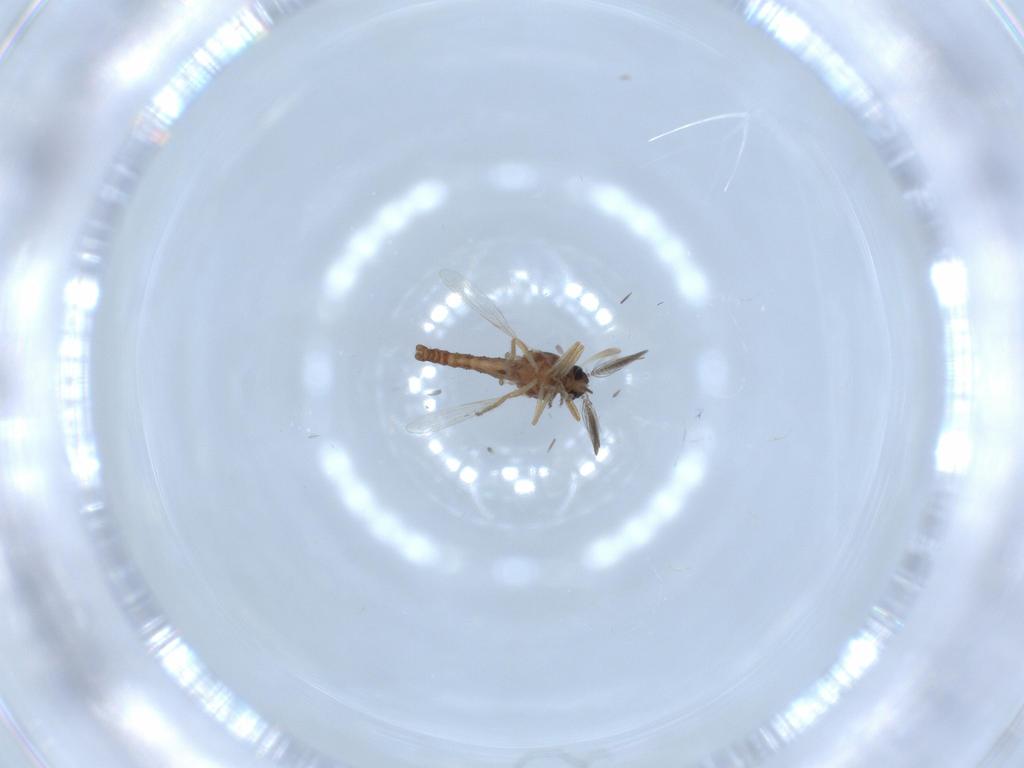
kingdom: Animalia
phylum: Arthropoda
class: Insecta
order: Diptera
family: Ceratopogonidae
